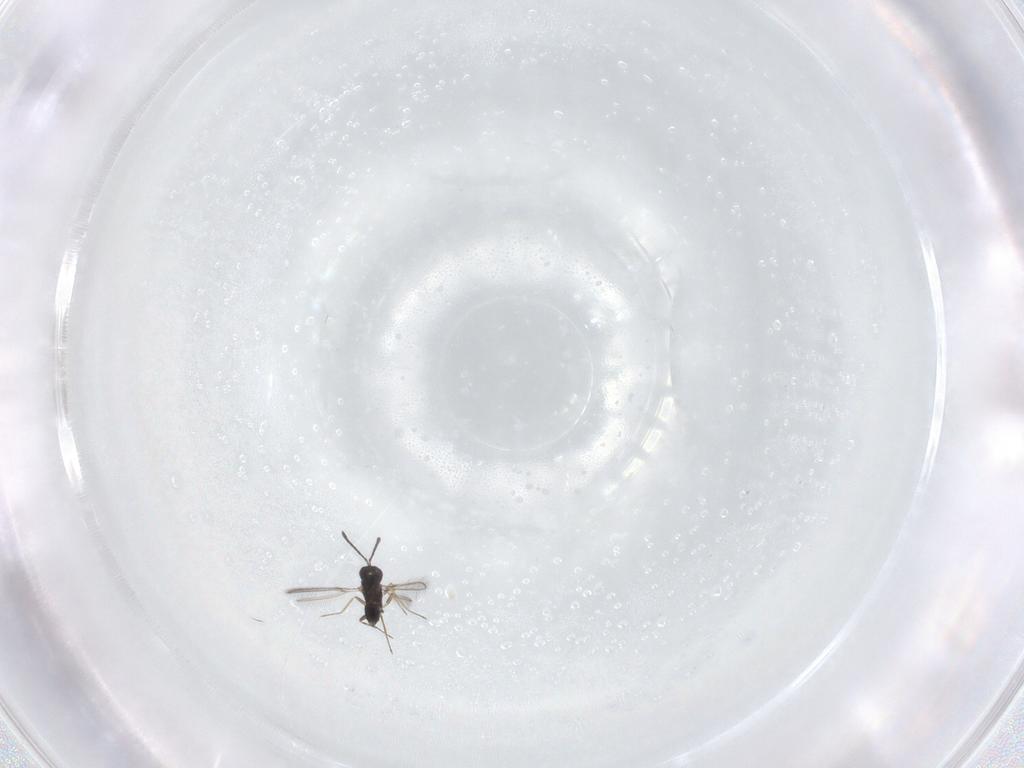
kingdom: Animalia
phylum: Arthropoda
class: Insecta
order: Hymenoptera
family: Mymaridae
